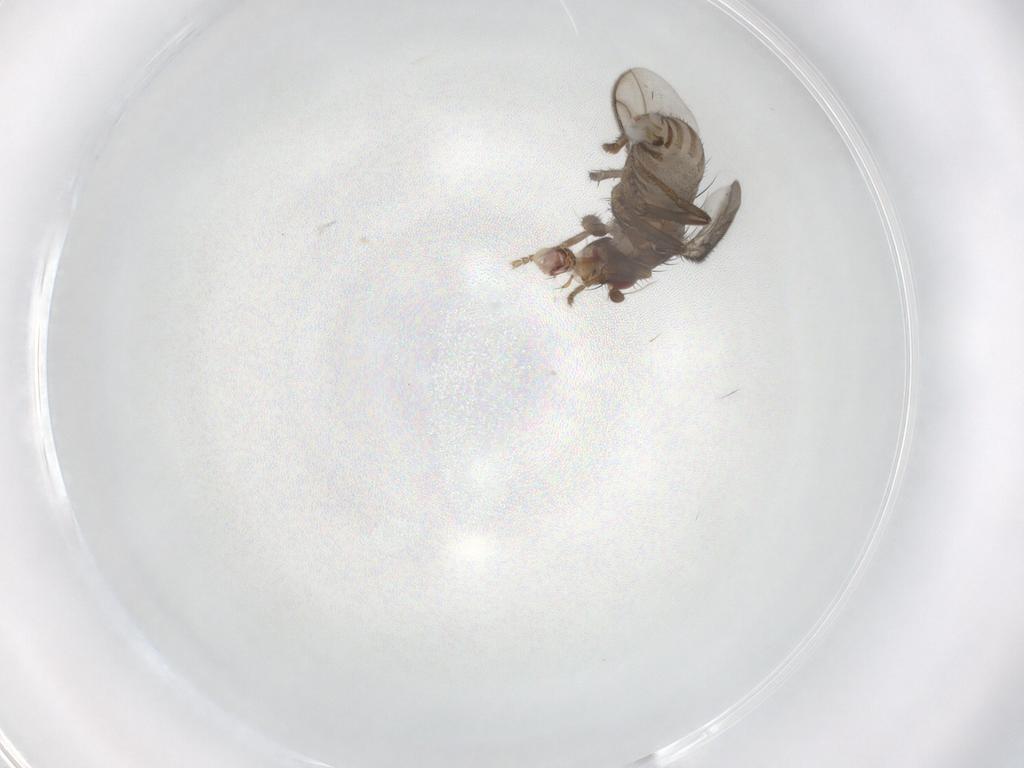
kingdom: Animalia
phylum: Arthropoda
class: Insecta
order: Diptera
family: Sphaeroceridae
